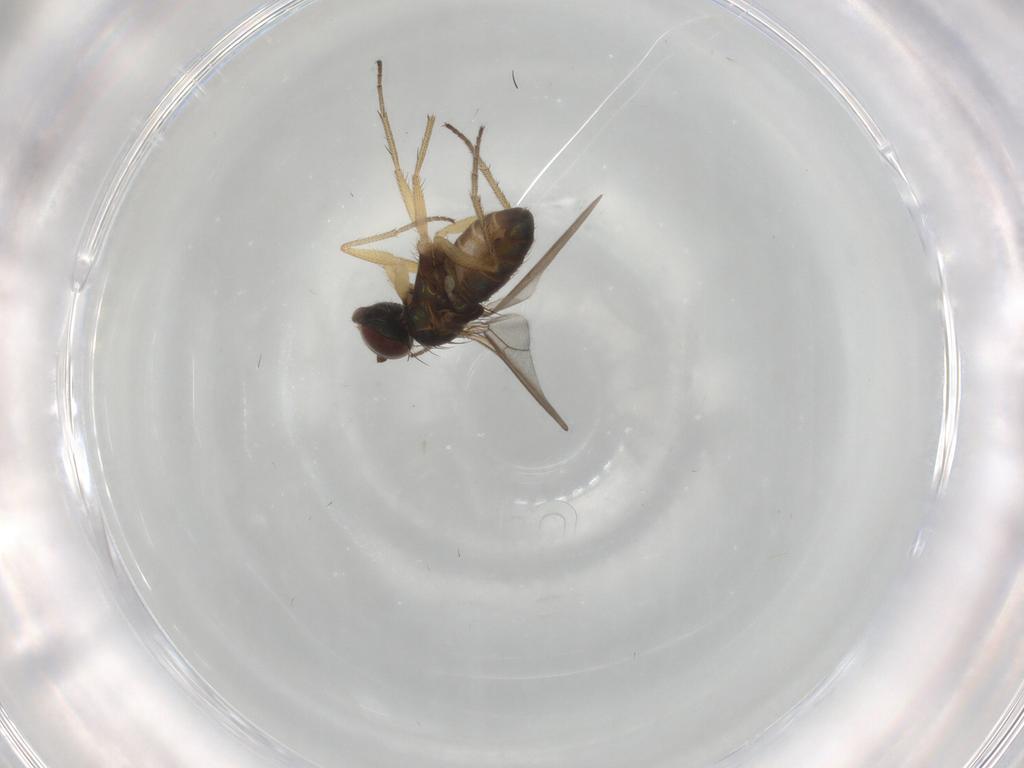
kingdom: Animalia
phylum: Arthropoda
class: Insecta
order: Diptera
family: Dolichopodidae
